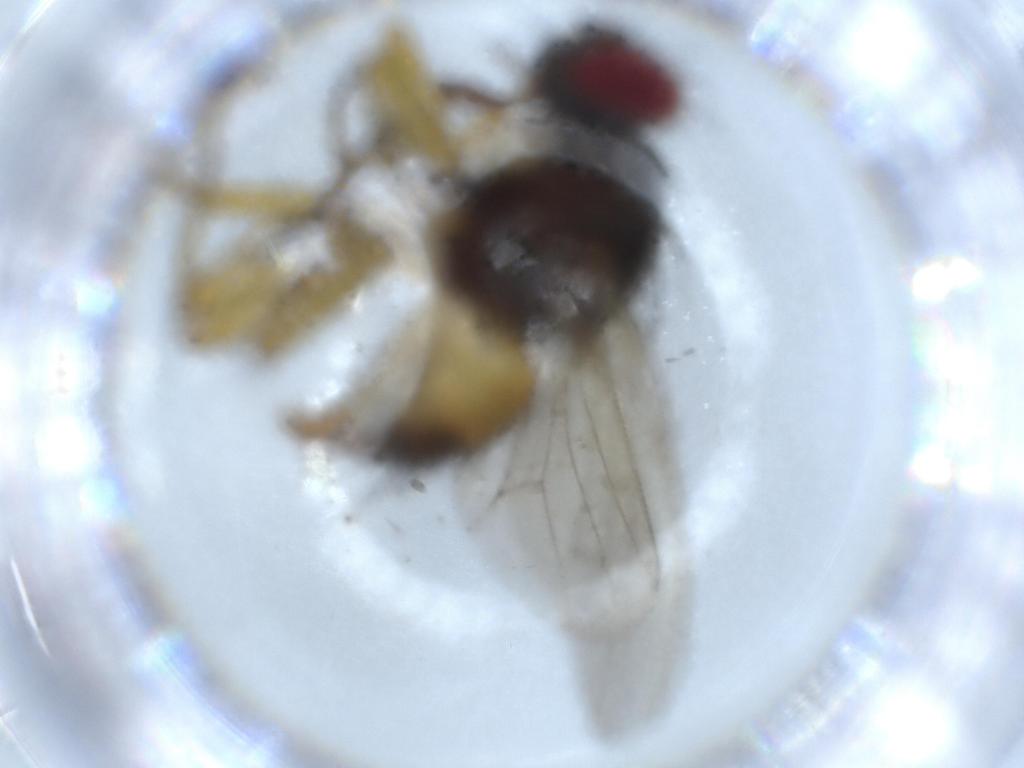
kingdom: Animalia
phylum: Arthropoda
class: Insecta
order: Diptera
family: Muscidae
